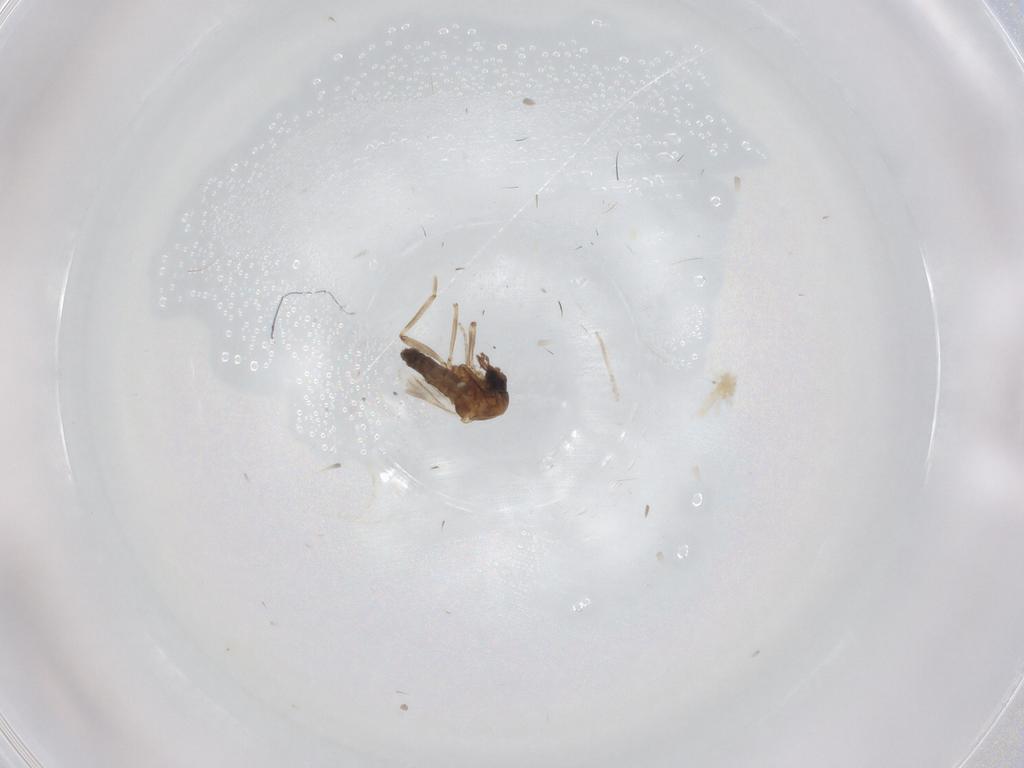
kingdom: Animalia
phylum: Arthropoda
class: Insecta
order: Diptera
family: Ceratopogonidae
